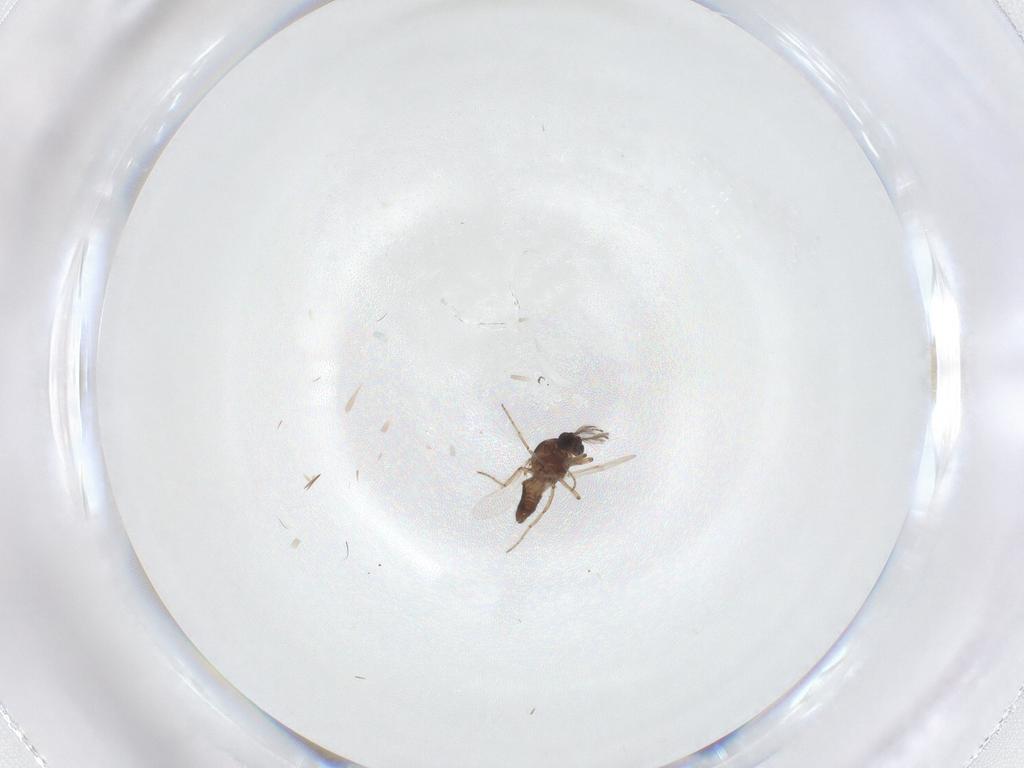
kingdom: Animalia
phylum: Arthropoda
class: Insecta
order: Diptera
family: Ceratopogonidae
